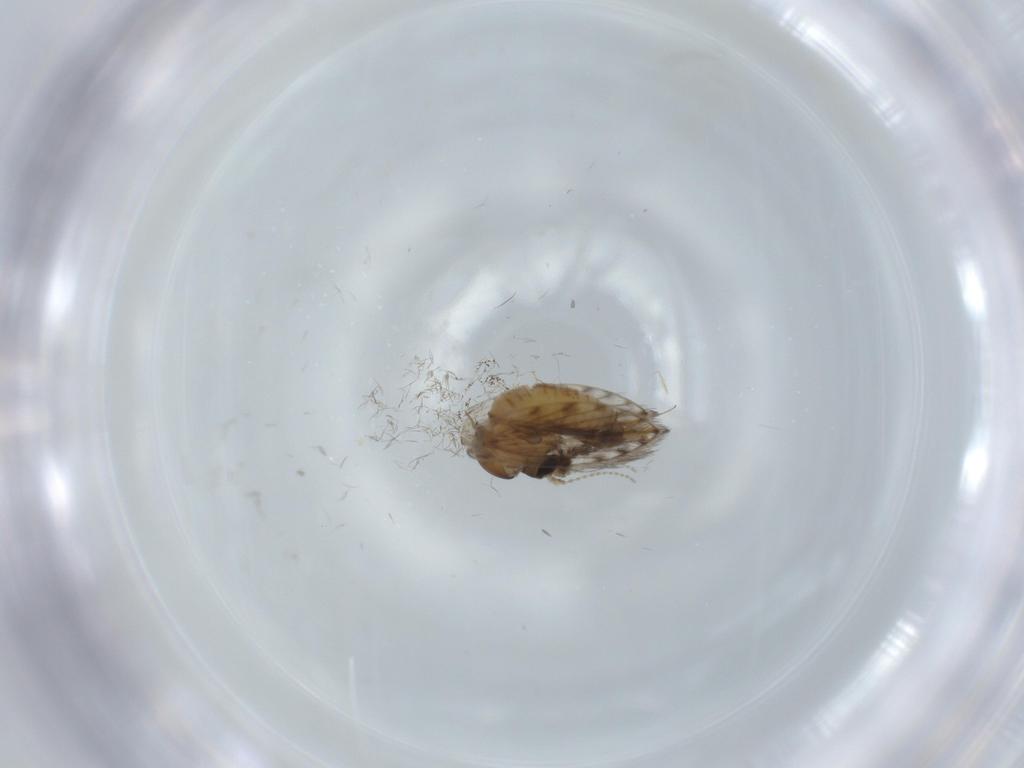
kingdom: Animalia
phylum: Arthropoda
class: Insecta
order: Diptera
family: Psychodidae
